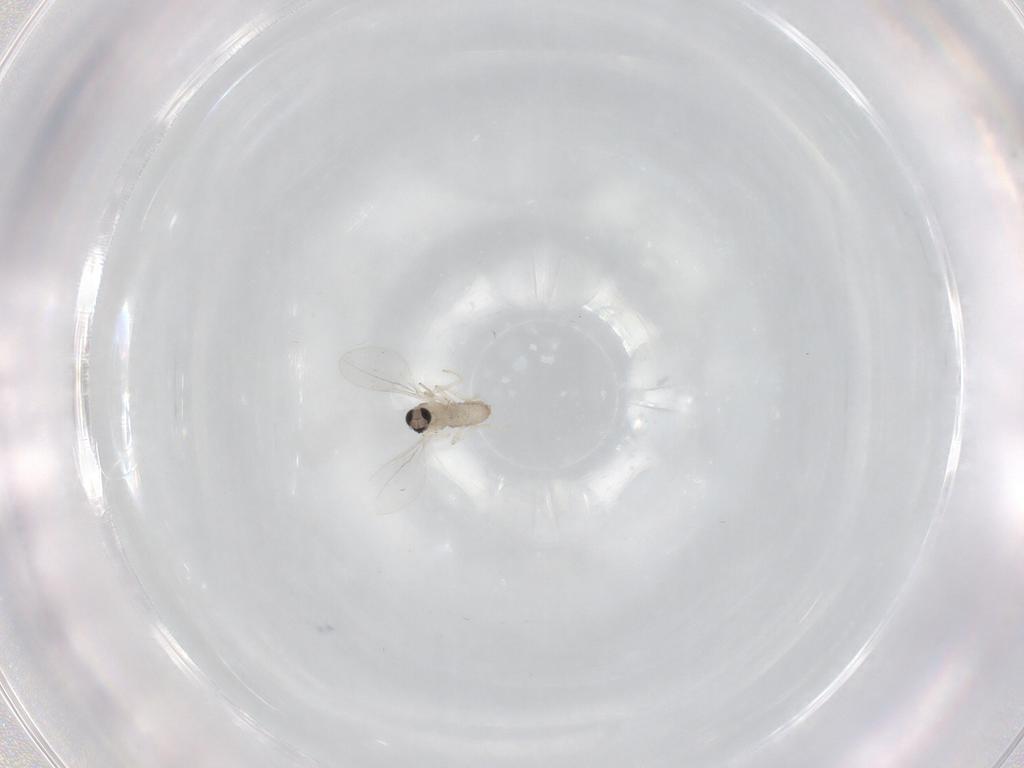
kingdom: Animalia
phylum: Arthropoda
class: Insecta
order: Diptera
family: Sciaridae
